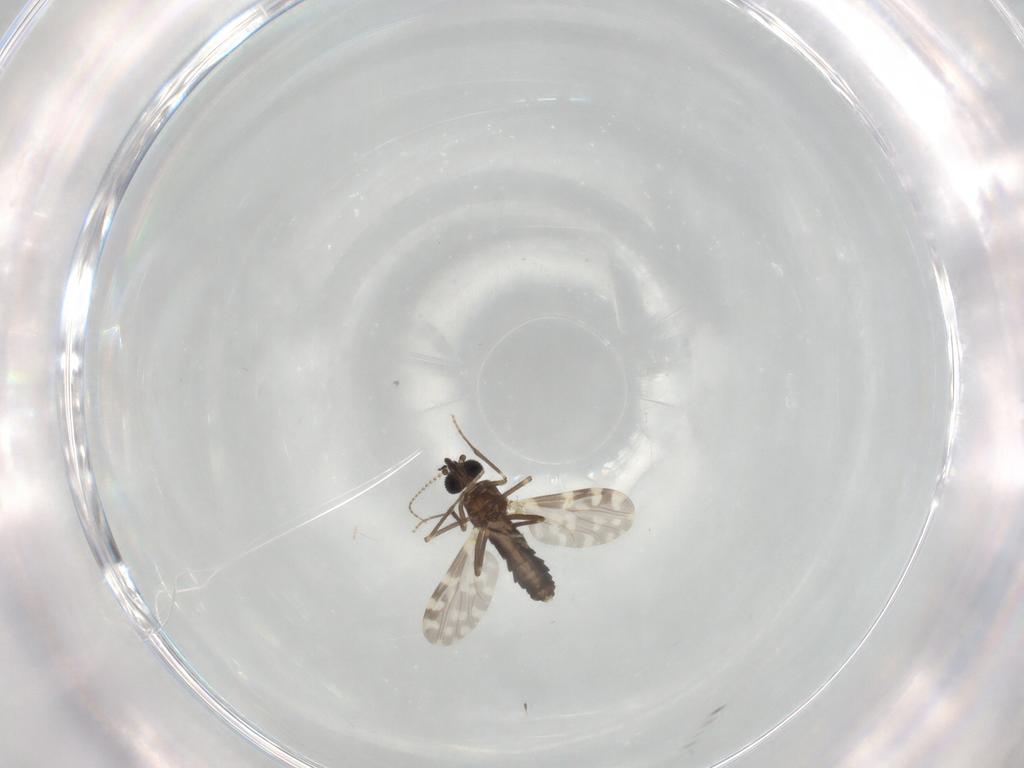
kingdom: Animalia
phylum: Arthropoda
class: Insecta
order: Diptera
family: Ceratopogonidae
